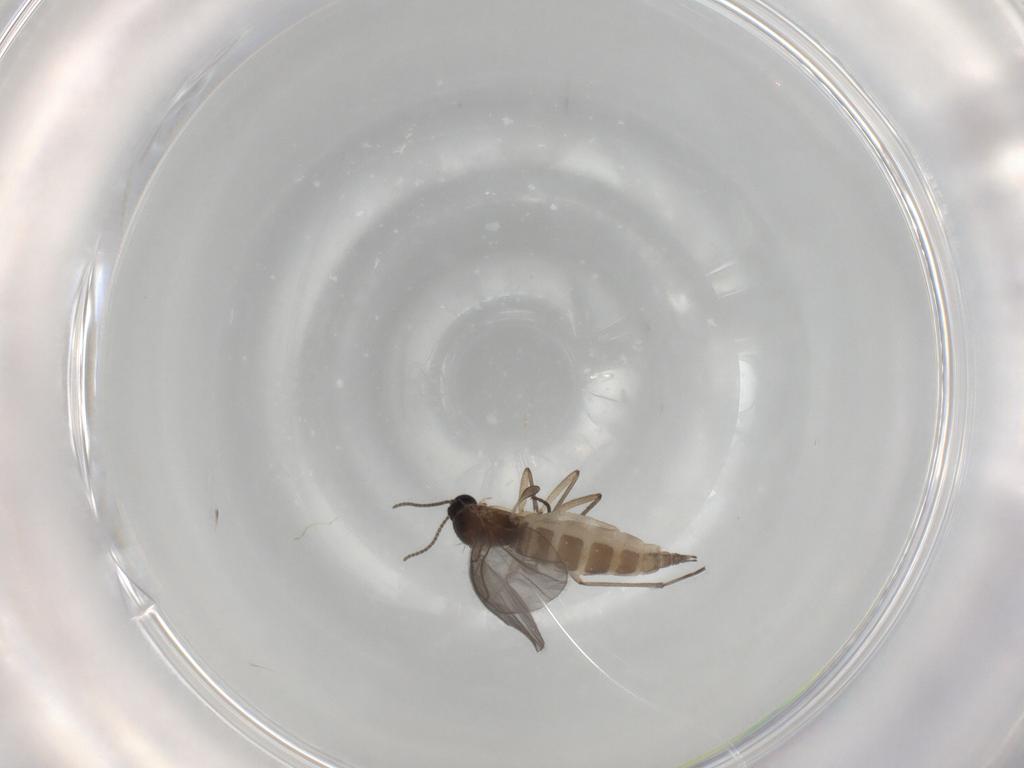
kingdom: Animalia
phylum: Arthropoda
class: Insecta
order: Diptera
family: Sciaridae
